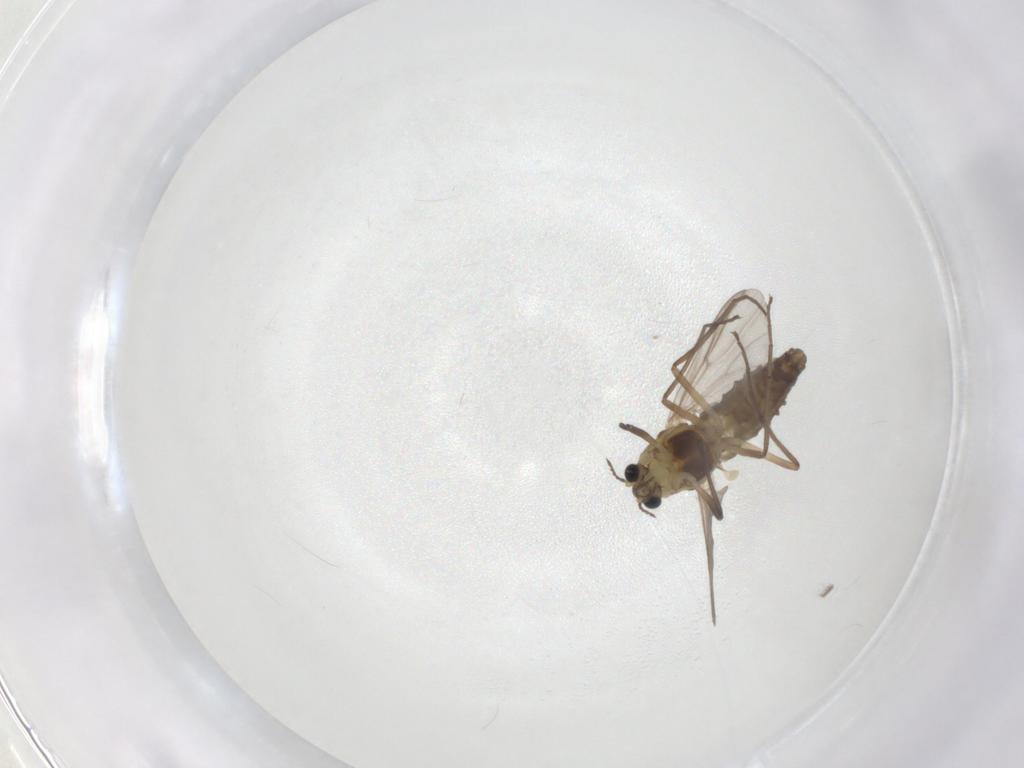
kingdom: Animalia
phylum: Arthropoda
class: Insecta
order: Diptera
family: Chironomidae
